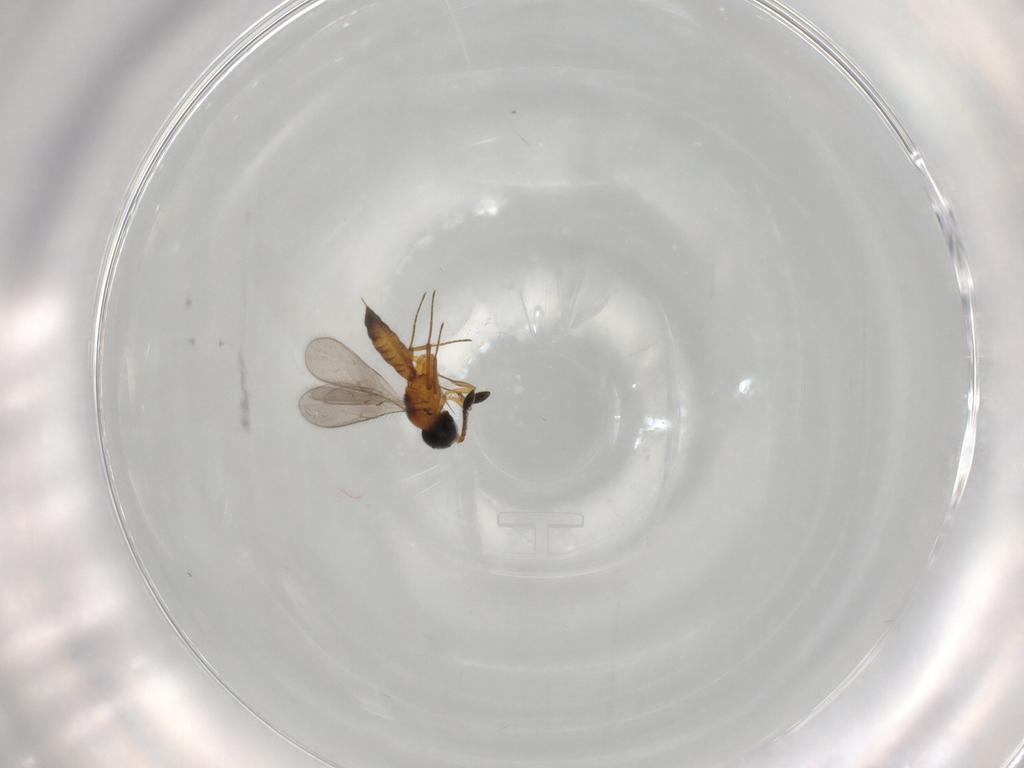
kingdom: Animalia
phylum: Arthropoda
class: Insecta
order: Hymenoptera
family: Scelionidae
